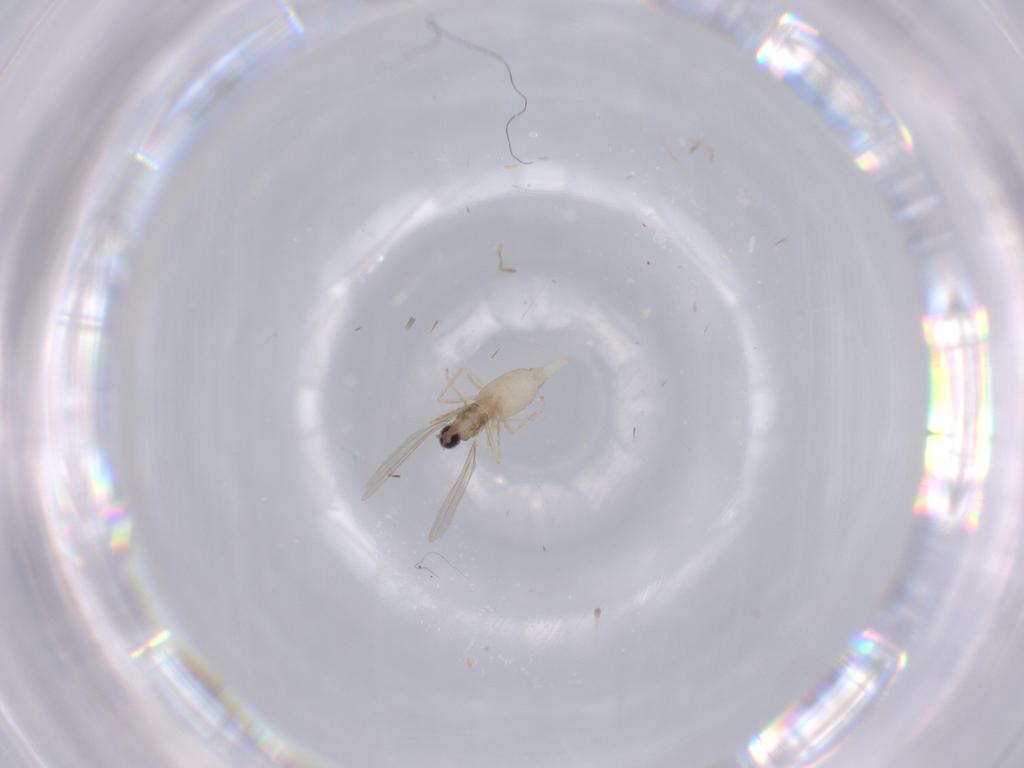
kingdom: Animalia
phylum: Arthropoda
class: Insecta
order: Diptera
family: Cecidomyiidae
